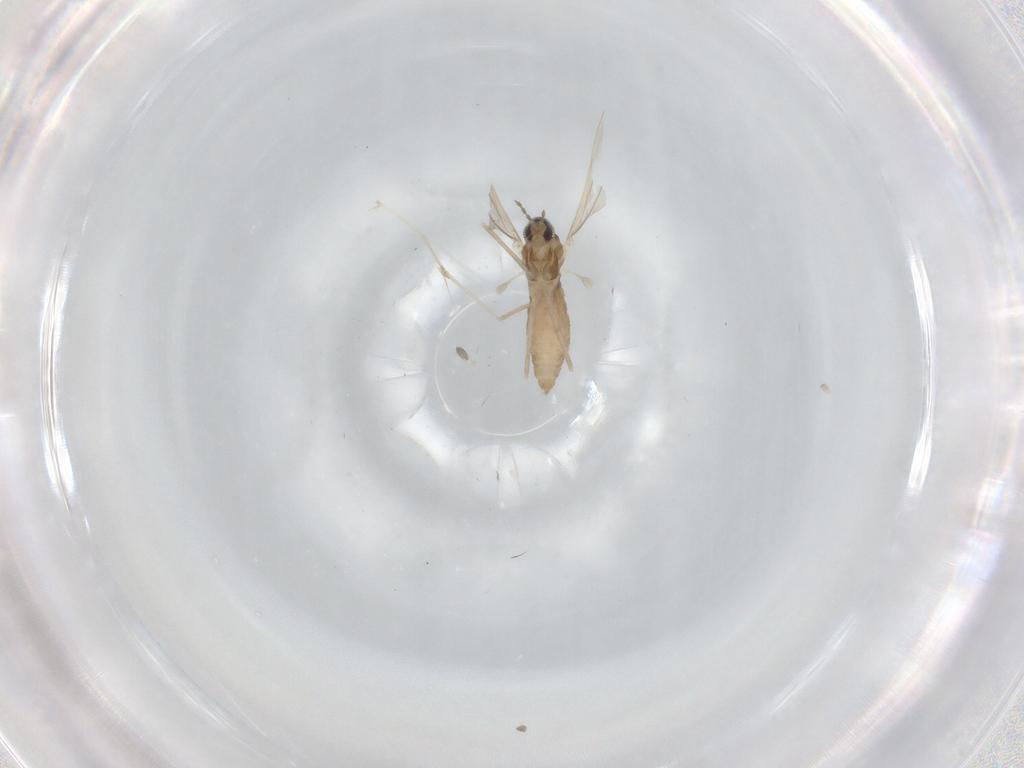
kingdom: Animalia
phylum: Arthropoda
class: Insecta
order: Diptera
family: Cecidomyiidae
